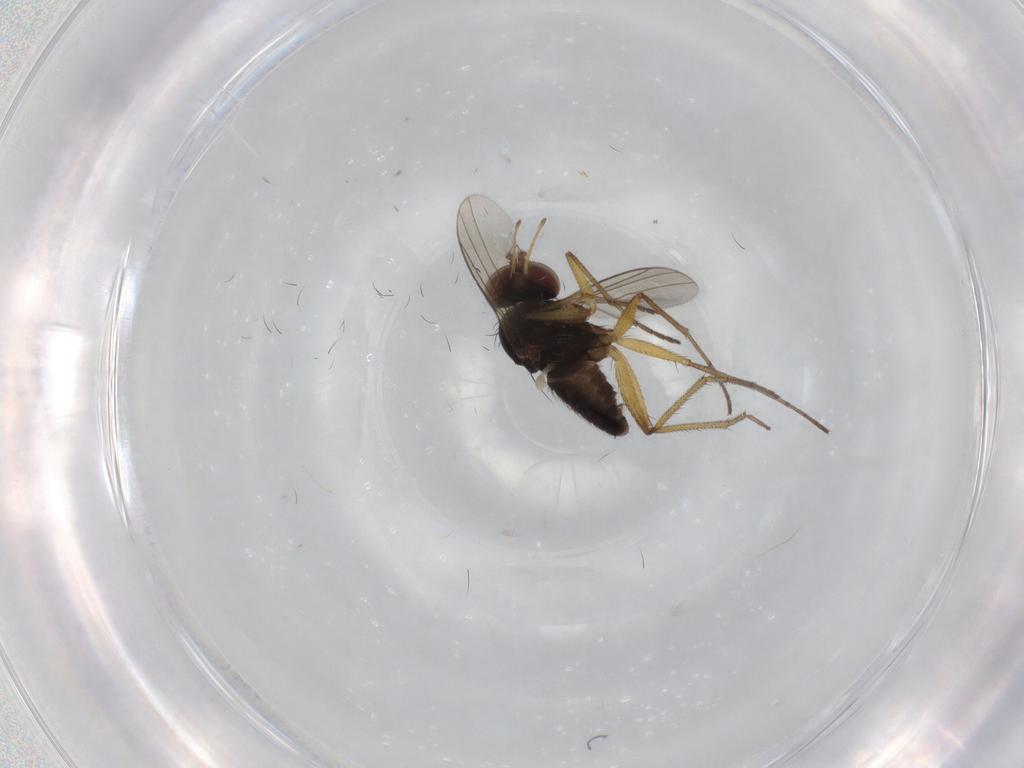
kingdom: Animalia
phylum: Arthropoda
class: Insecta
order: Diptera
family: Dolichopodidae
